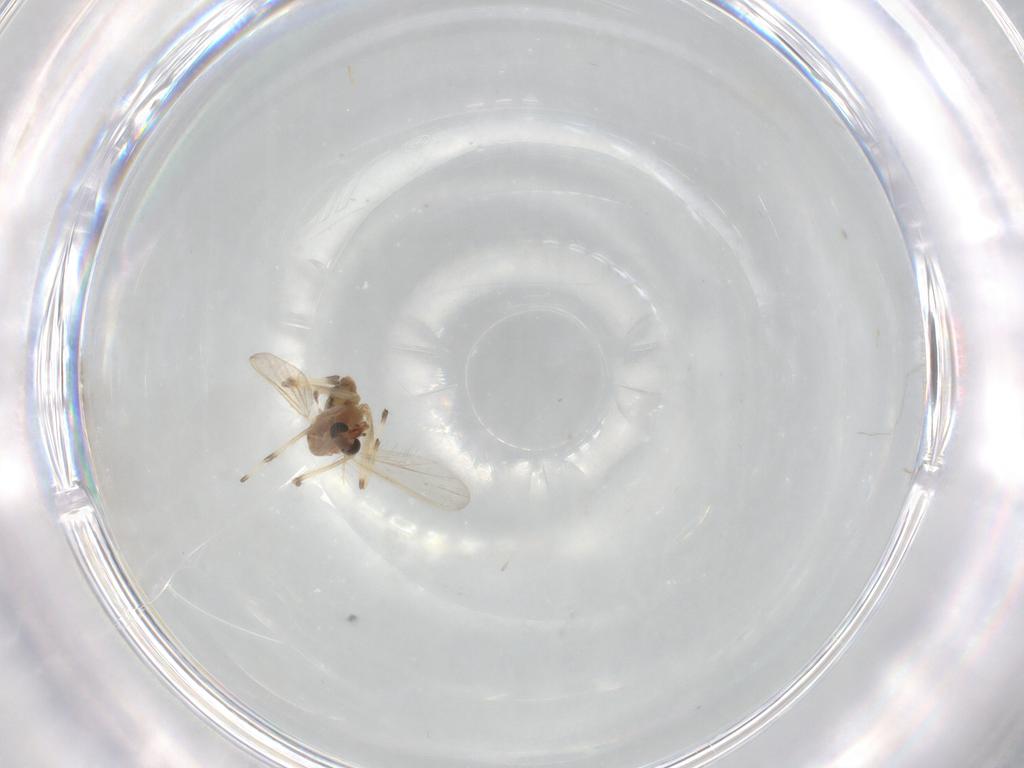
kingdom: Animalia
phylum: Arthropoda
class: Insecta
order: Diptera
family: Chironomidae
